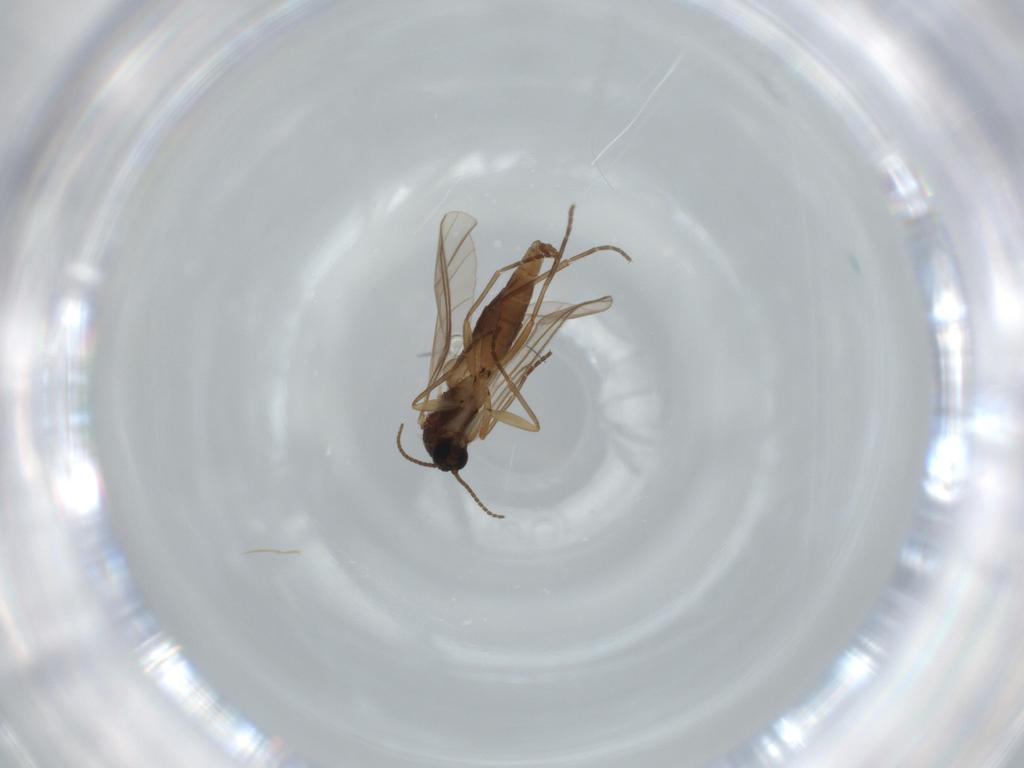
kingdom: Animalia
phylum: Arthropoda
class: Insecta
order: Diptera
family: Sciaridae
